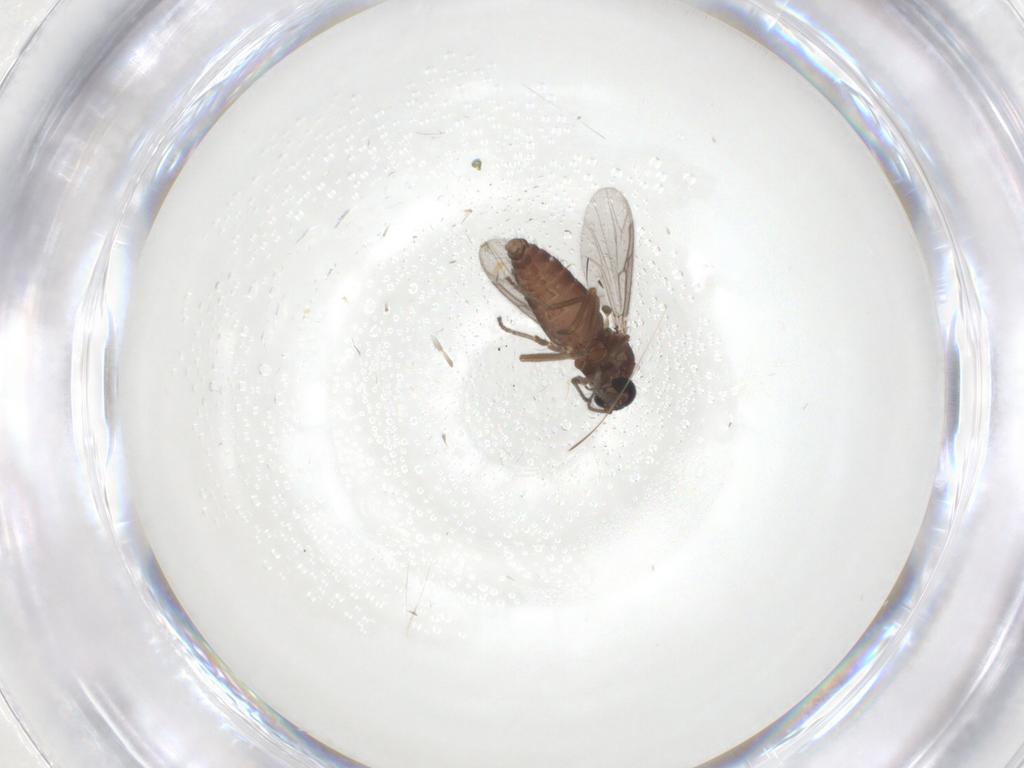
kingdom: Animalia
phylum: Arthropoda
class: Insecta
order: Diptera
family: Ceratopogonidae
